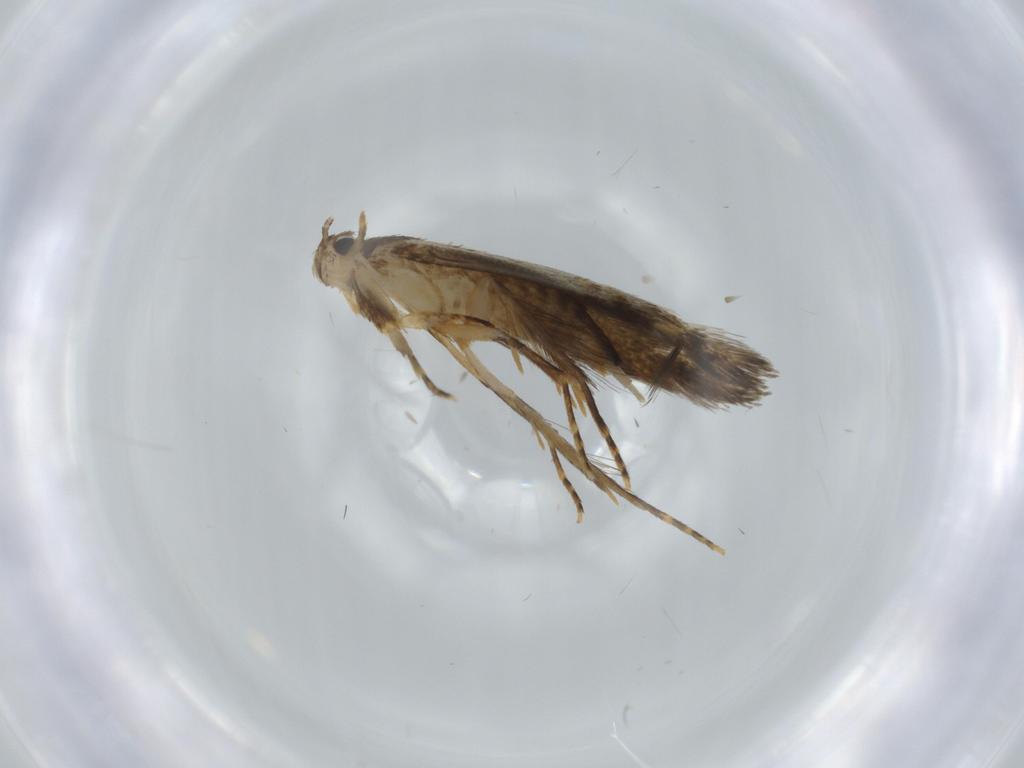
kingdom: Animalia
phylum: Arthropoda
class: Insecta
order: Lepidoptera
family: Tineidae
